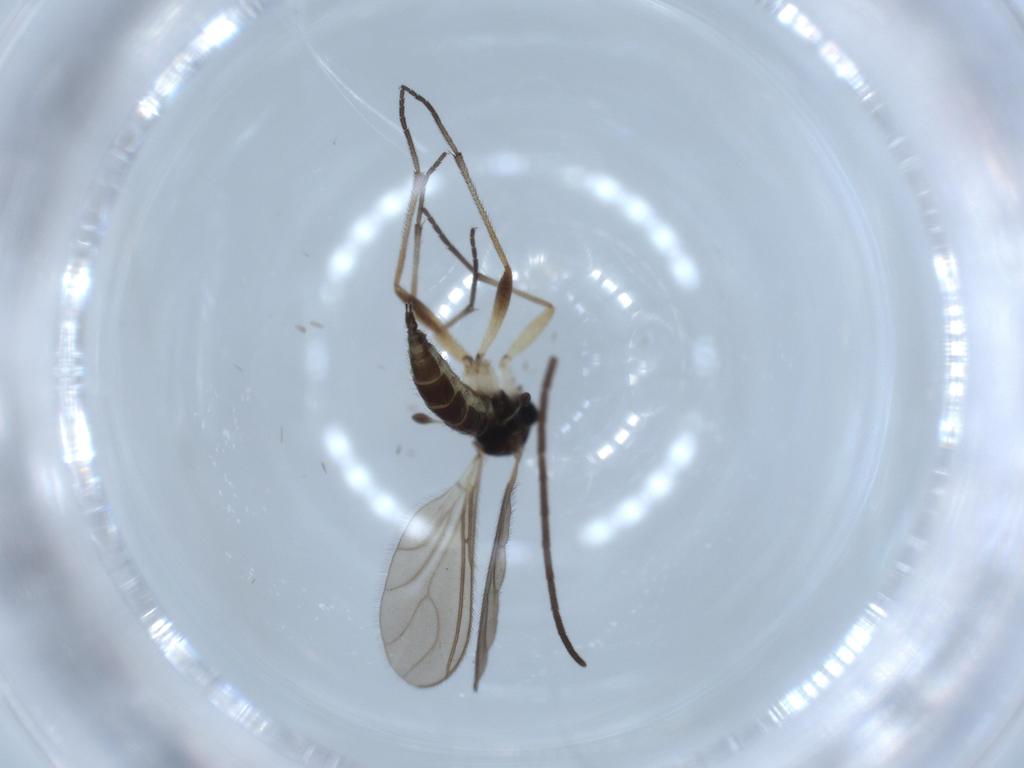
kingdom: Animalia
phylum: Arthropoda
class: Insecta
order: Diptera
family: Sciaridae
